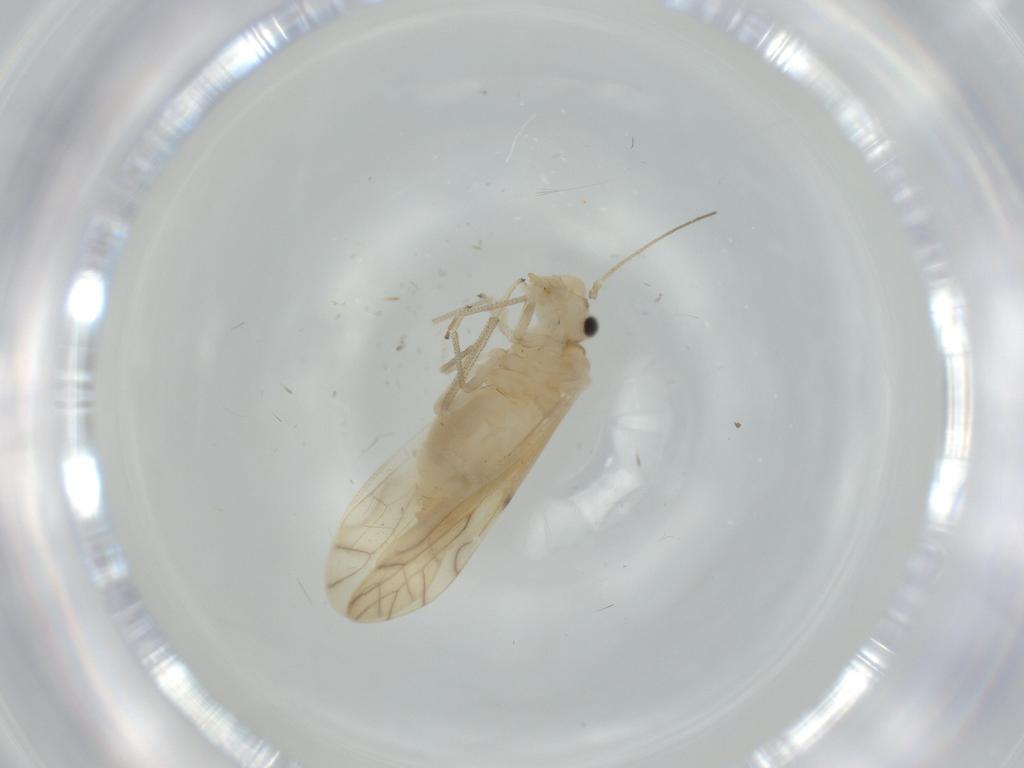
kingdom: Animalia
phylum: Arthropoda
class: Insecta
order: Psocodea
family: Caeciliusidae
